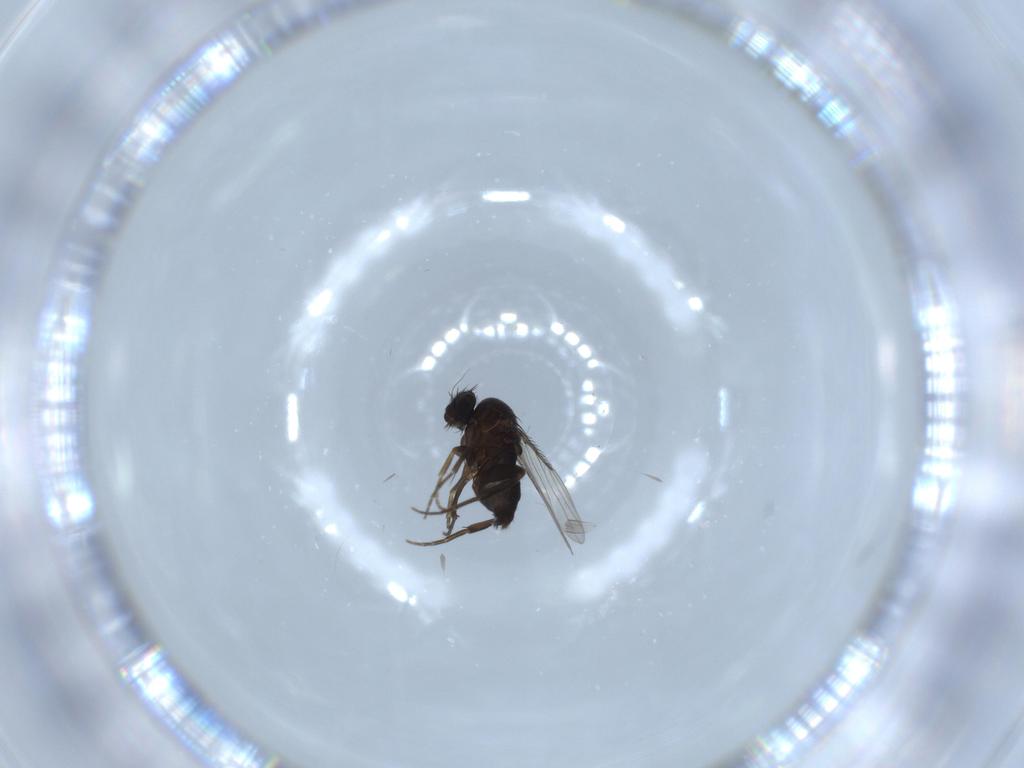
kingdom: Animalia
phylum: Arthropoda
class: Insecta
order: Diptera
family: Phoridae
